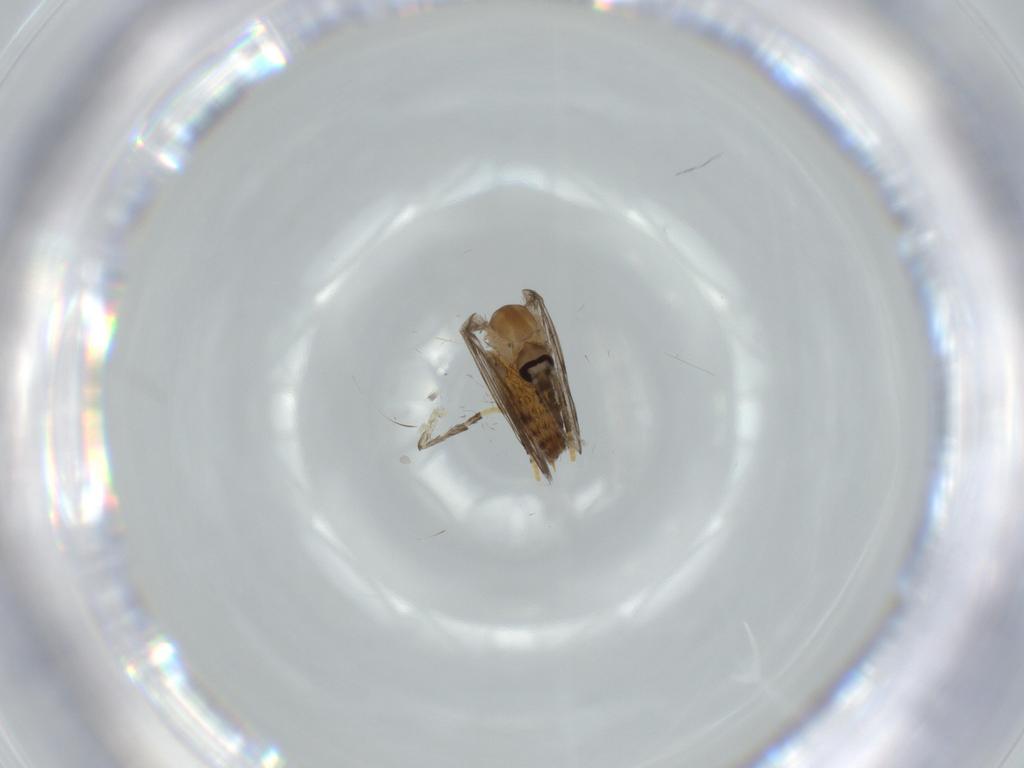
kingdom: Animalia
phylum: Arthropoda
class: Insecta
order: Diptera
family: Psychodidae
